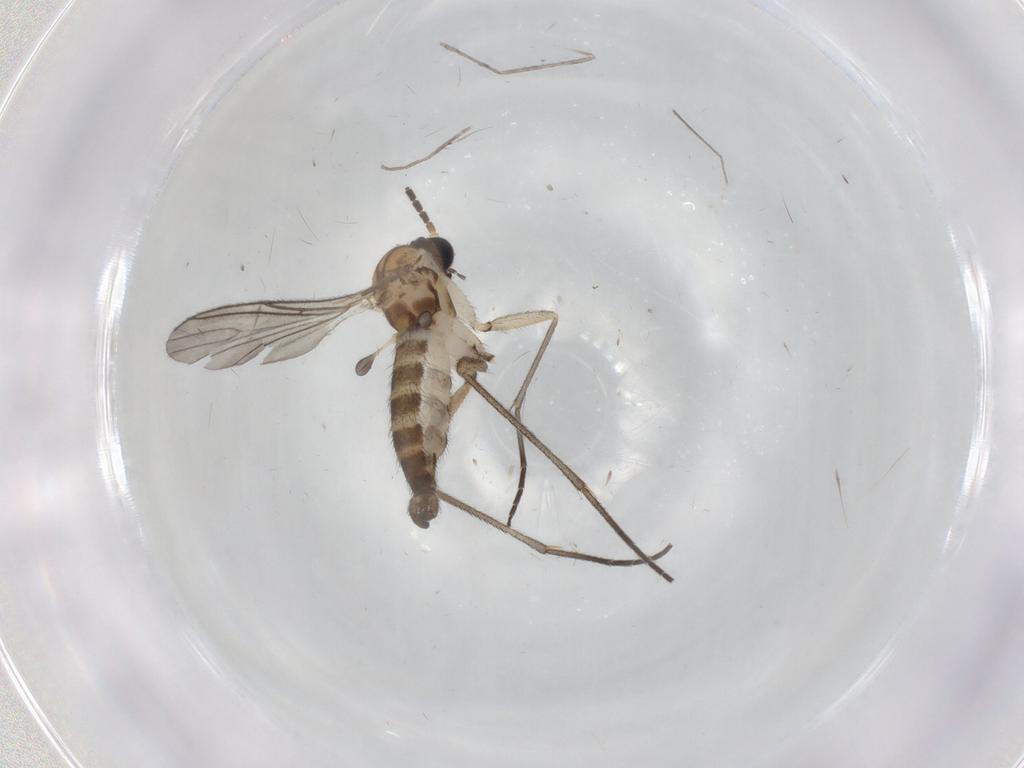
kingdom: Animalia
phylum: Arthropoda
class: Insecta
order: Diptera
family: Sciaridae
